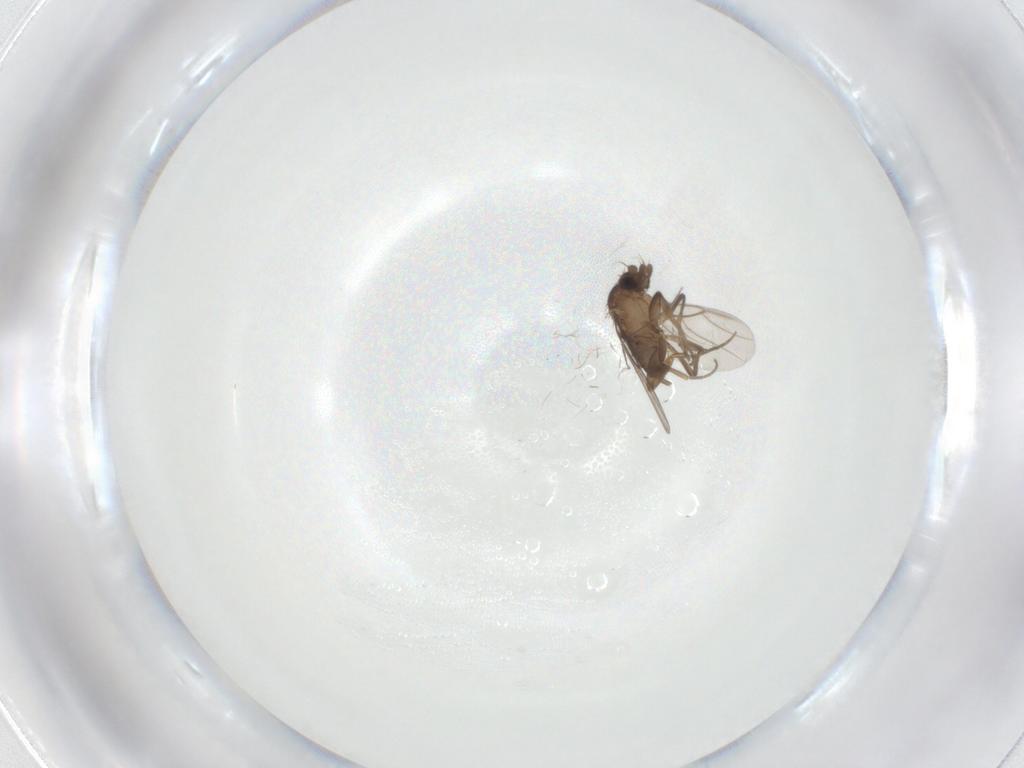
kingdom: Animalia
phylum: Arthropoda
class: Insecta
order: Diptera
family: Phoridae
